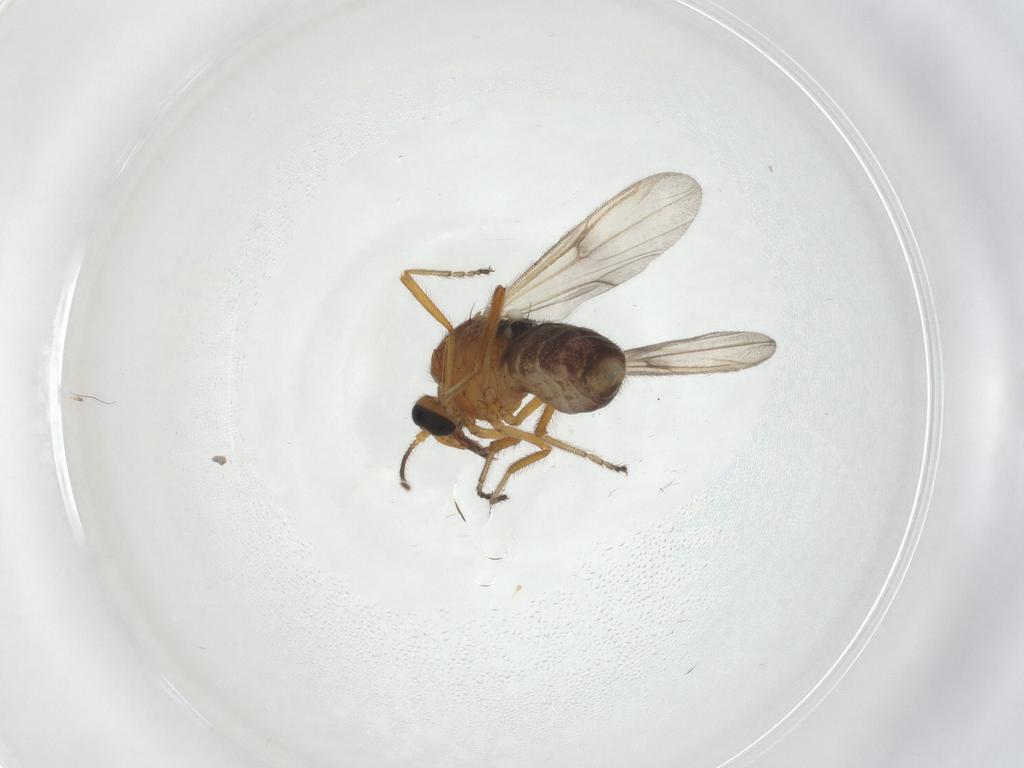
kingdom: Animalia
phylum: Arthropoda
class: Insecta
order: Diptera
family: Ceratopogonidae
